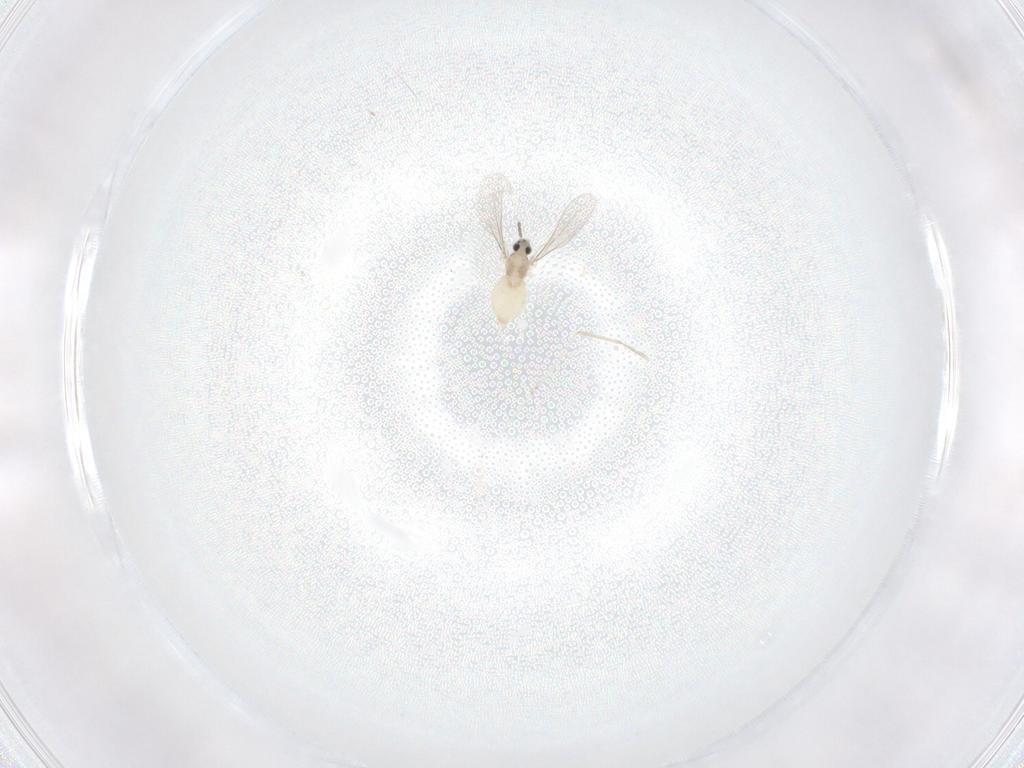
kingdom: Animalia
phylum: Arthropoda
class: Insecta
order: Diptera
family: Cecidomyiidae
